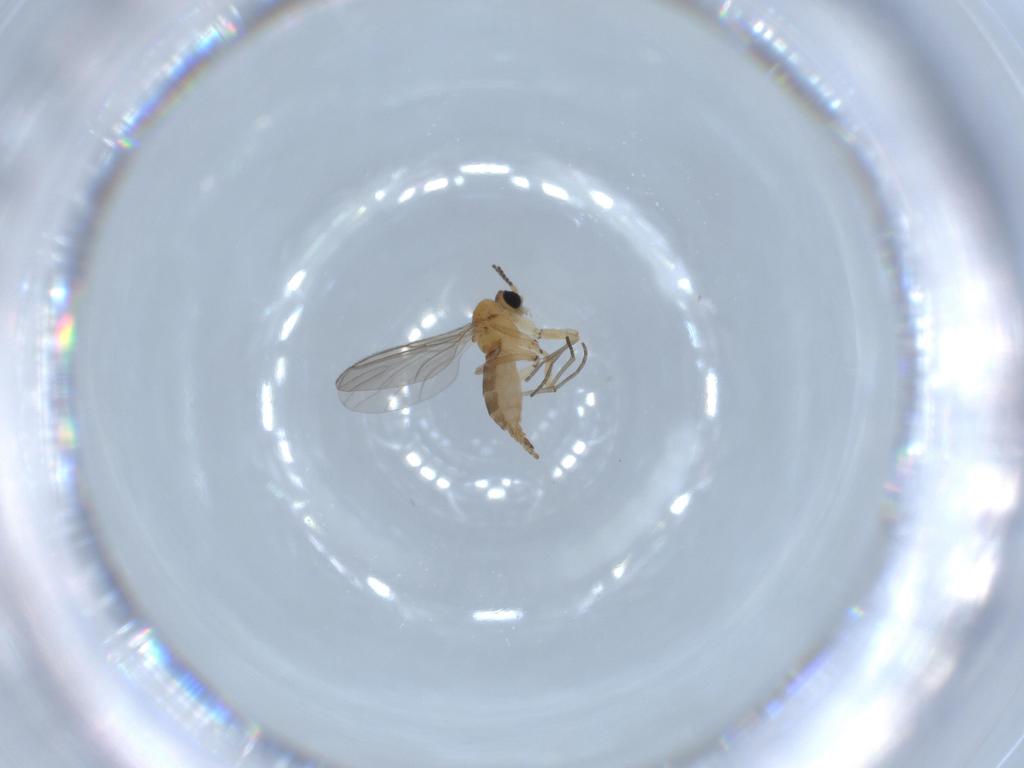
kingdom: Animalia
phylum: Arthropoda
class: Insecta
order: Diptera
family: Sciaridae
